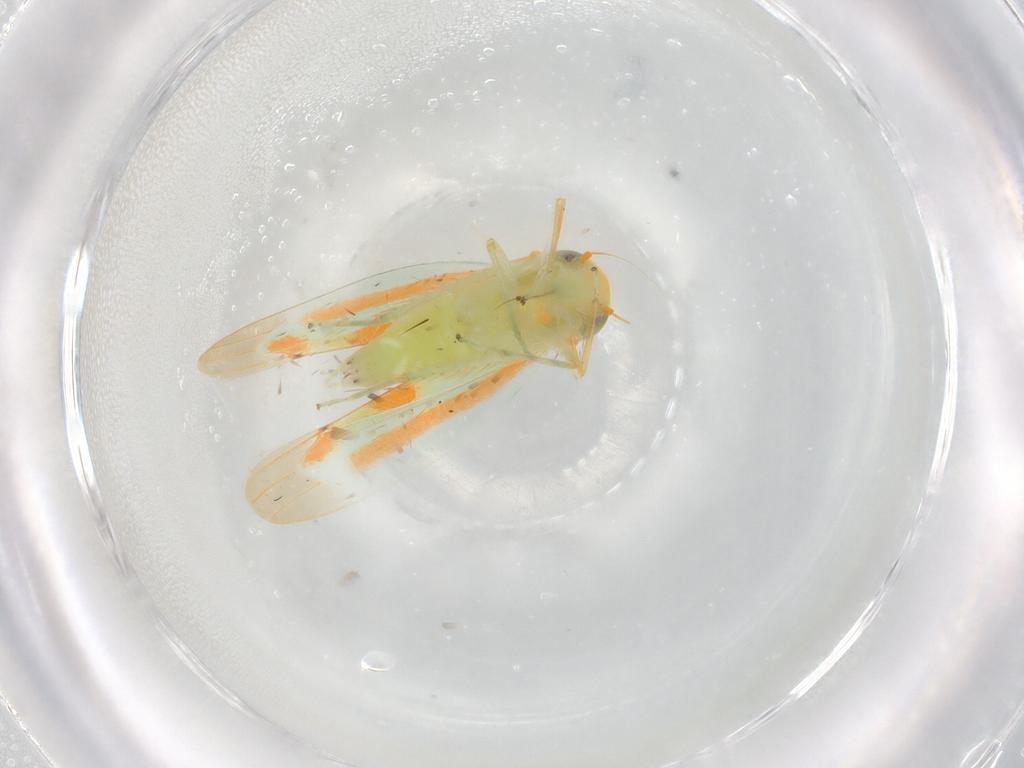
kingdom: Animalia
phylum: Arthropoda
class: Insecta
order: Hemiptera
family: Cicadellidae
